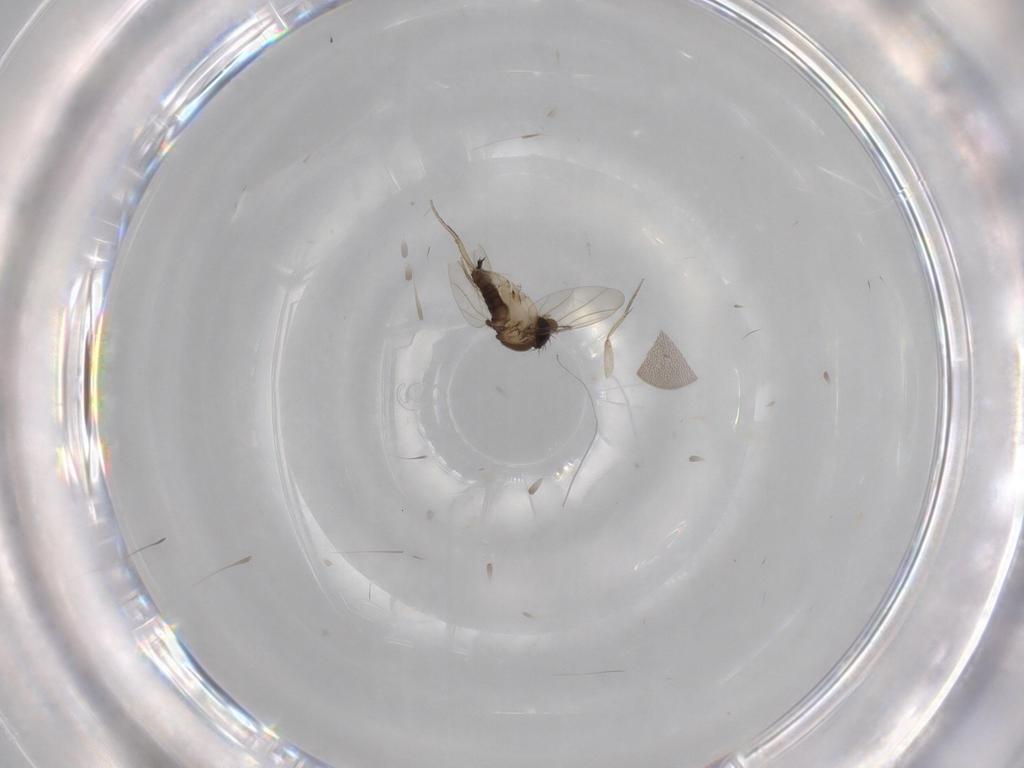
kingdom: Animalia
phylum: Arthropoda
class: Insecta
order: Diptera
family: Phoridae
